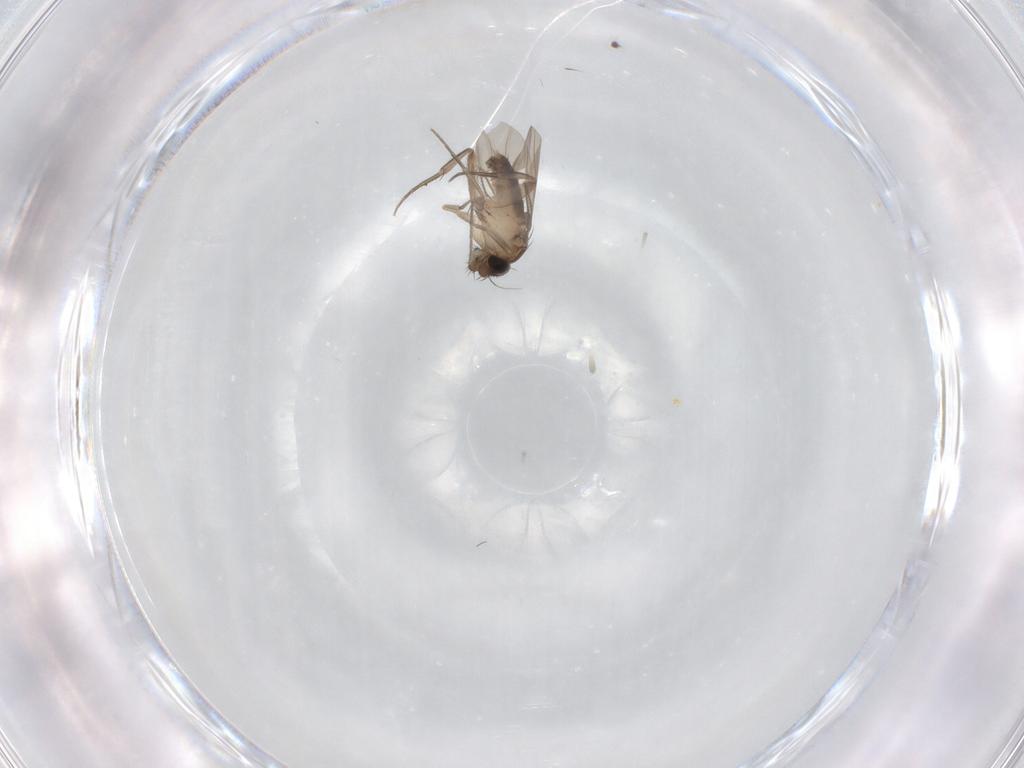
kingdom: Animalia
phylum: Arthropoda
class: Insecta
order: Diptera
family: Phoridae
